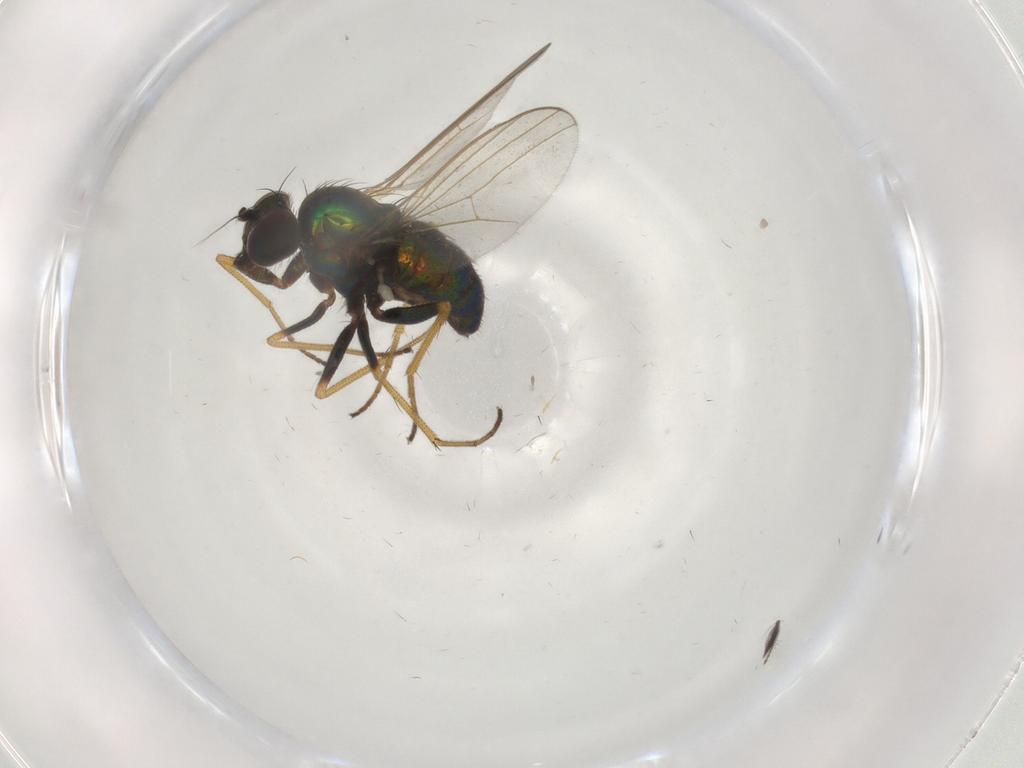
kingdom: Animalia
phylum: Arthropoda
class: Insecta
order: Diptera
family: Dolichopodidae
